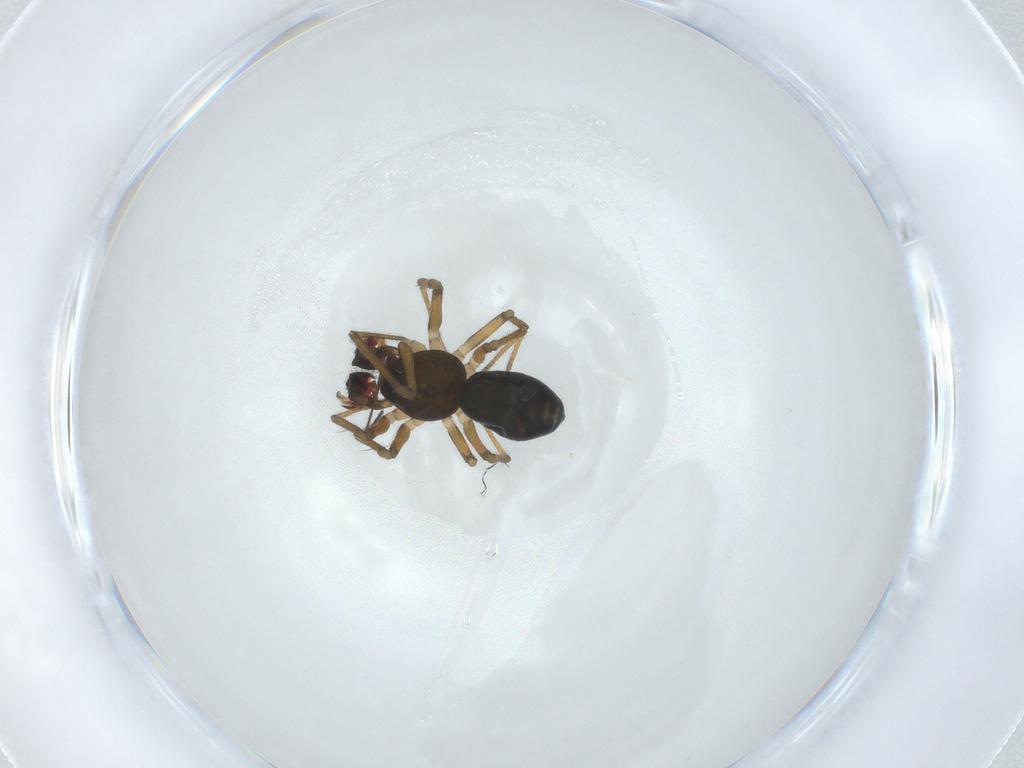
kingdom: Animalia
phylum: Arthropoda
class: Arachnida
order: Araneae
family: Linyphiidae
